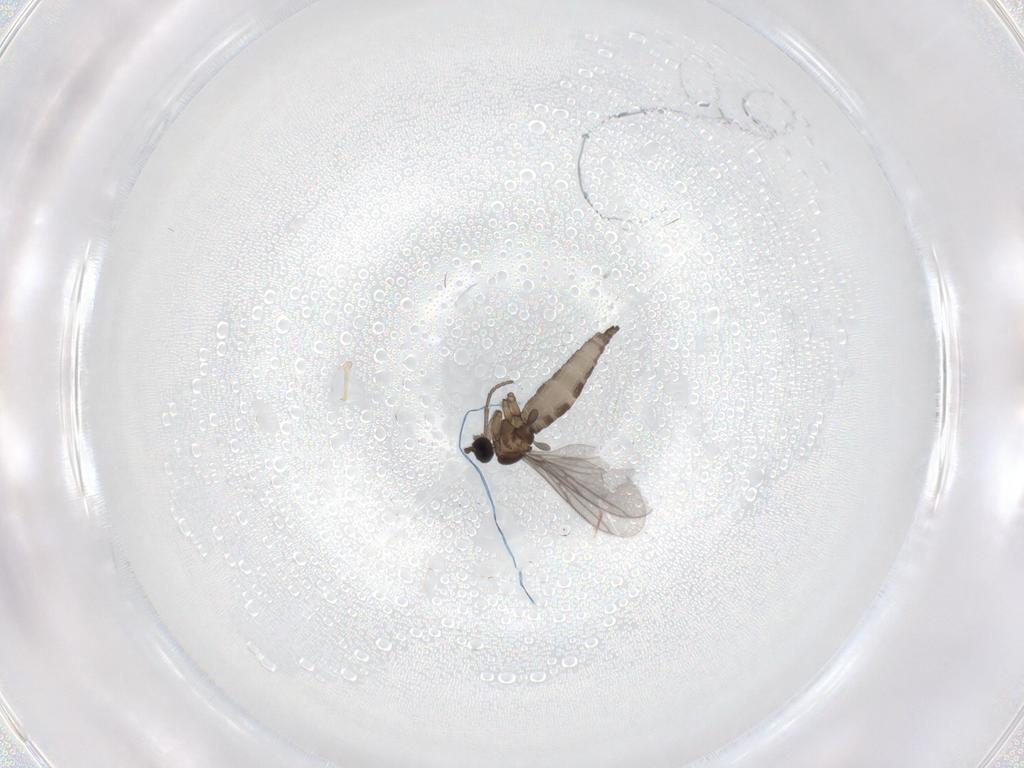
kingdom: Animalia
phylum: Arthropoda
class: Insecta
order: Diptera
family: Sciaridae
